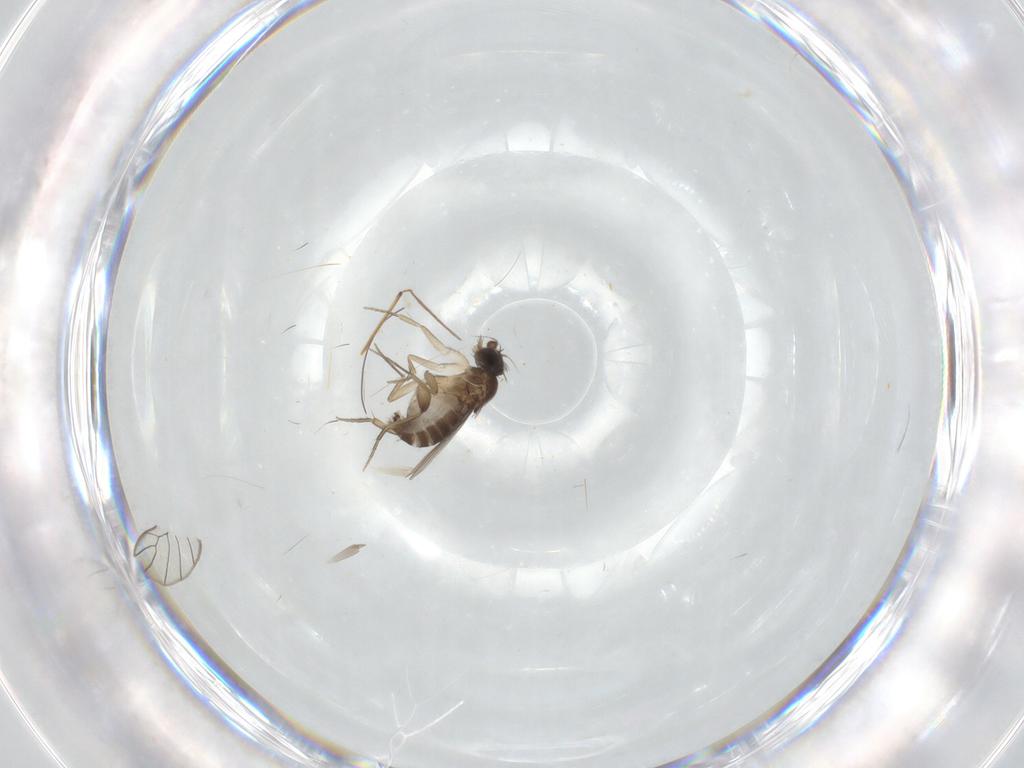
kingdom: Animalia
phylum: Arthropoda
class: Insecta
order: Diptera
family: Phoridae
